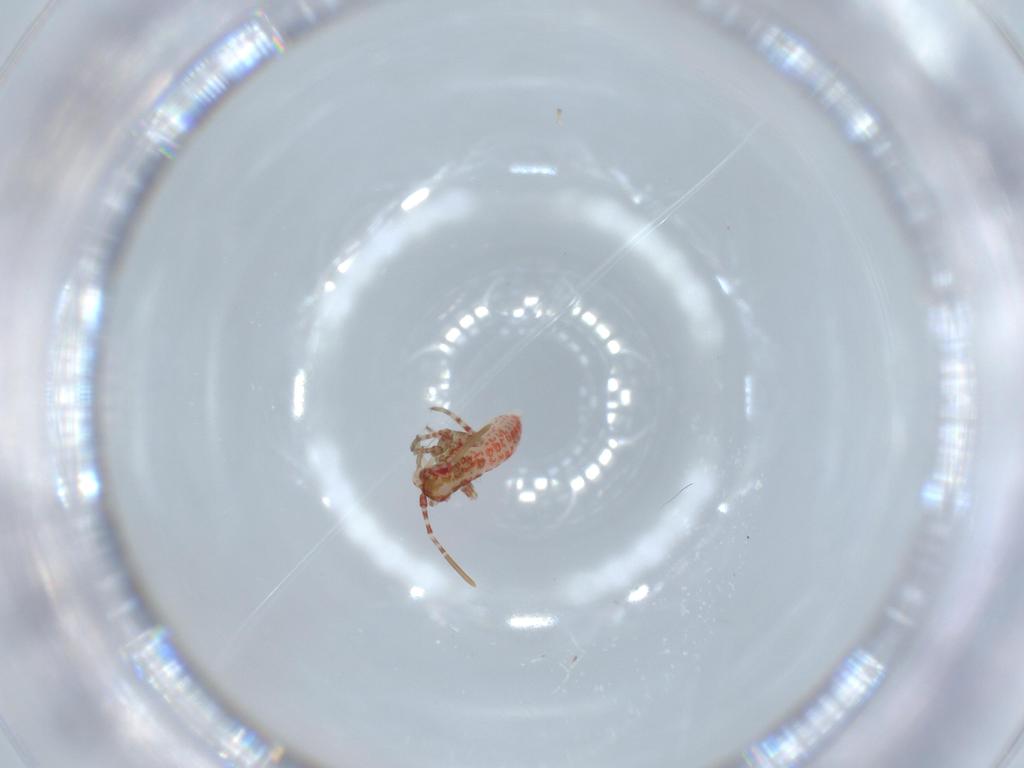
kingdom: Animalia
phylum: Arthropoda
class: Insecta
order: Hemiptera
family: Miridae
